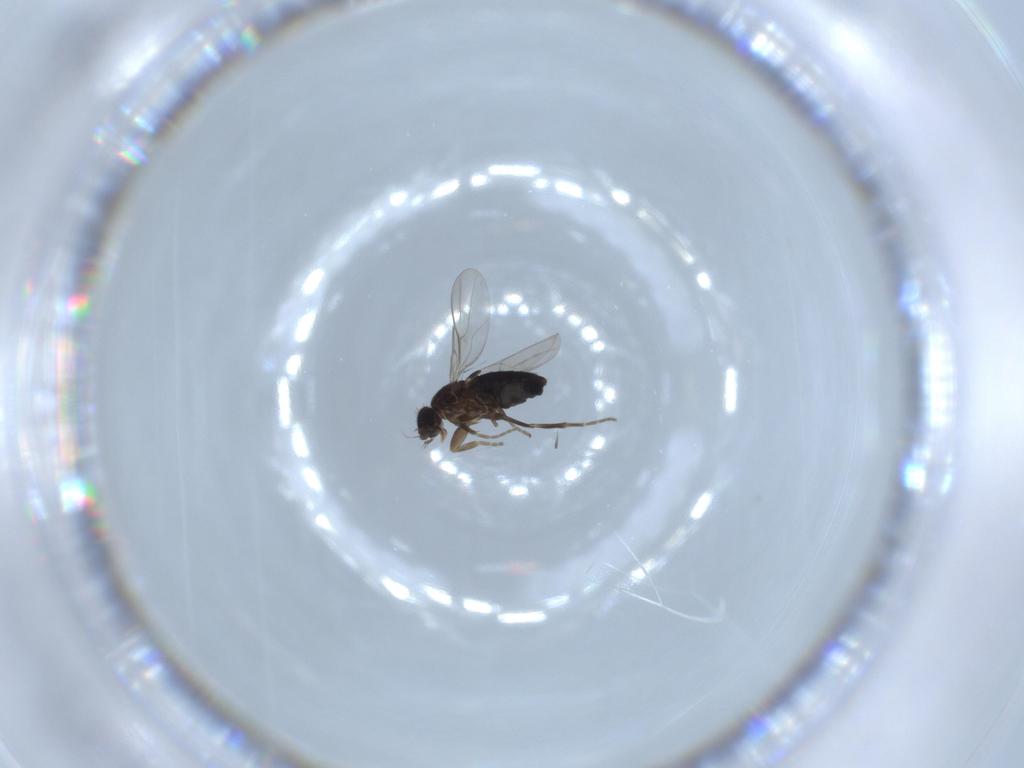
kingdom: Animalia
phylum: Arthropoda
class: Insecta
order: Diptera
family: Phoridae
